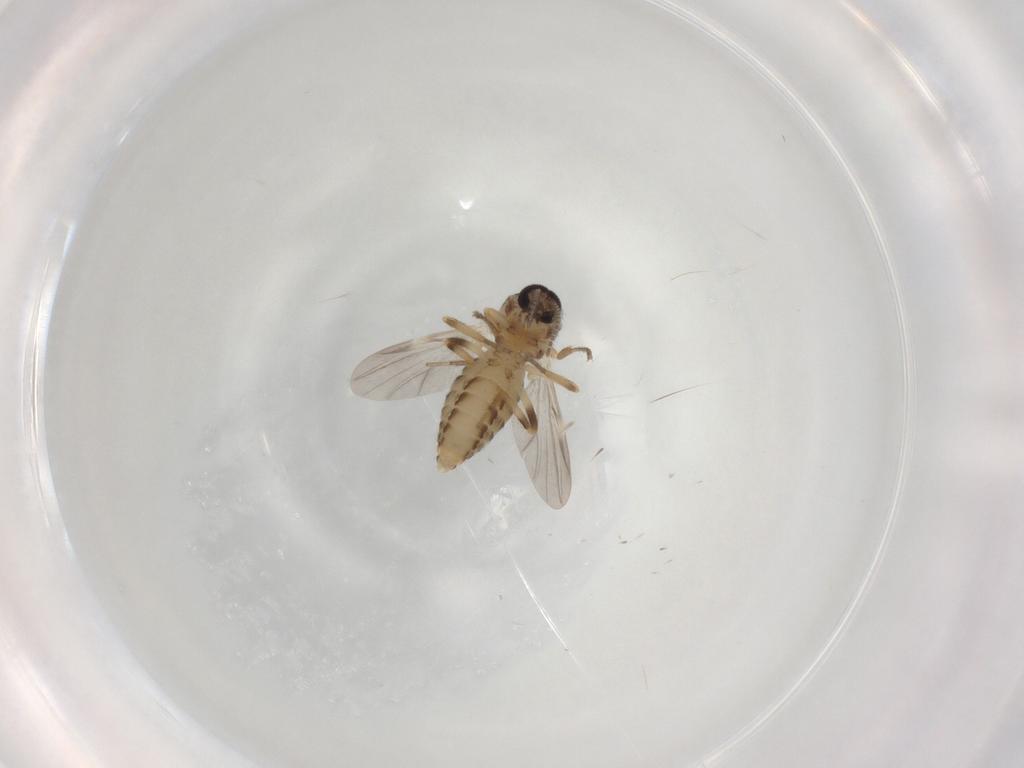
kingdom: Animalia
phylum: Arthropoda
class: Insecta
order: Diptera
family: Ceratopogonidae
